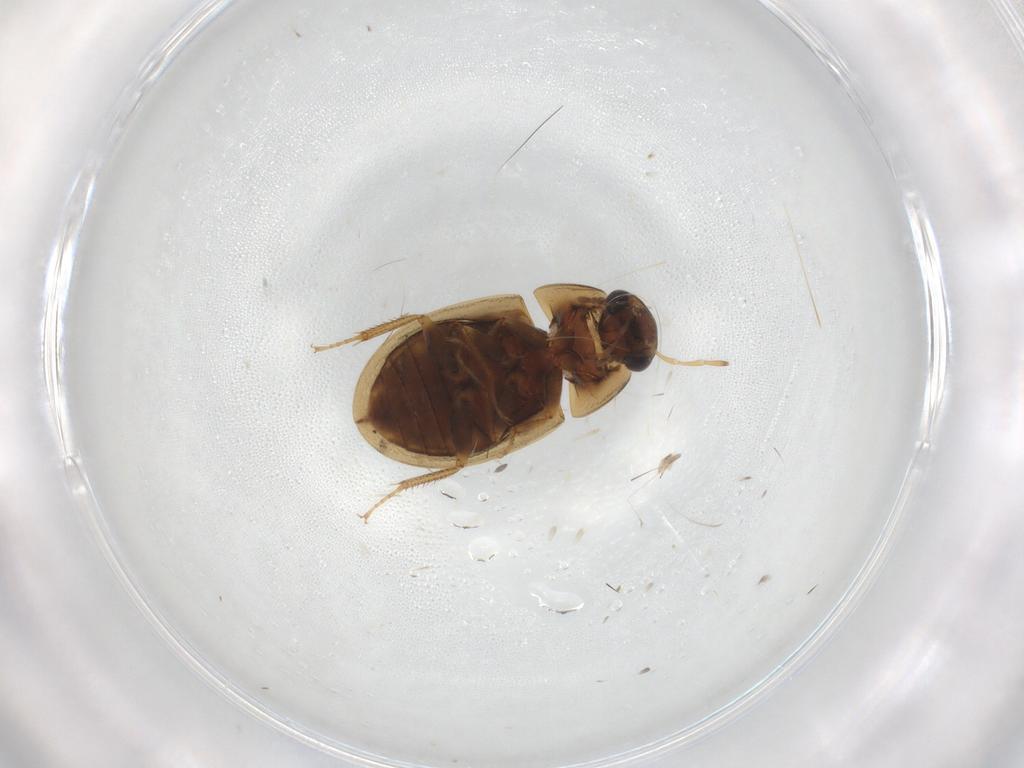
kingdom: Animalia
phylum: Arthropoda
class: Insecta
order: Coleoptera
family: Hydrophilidae
